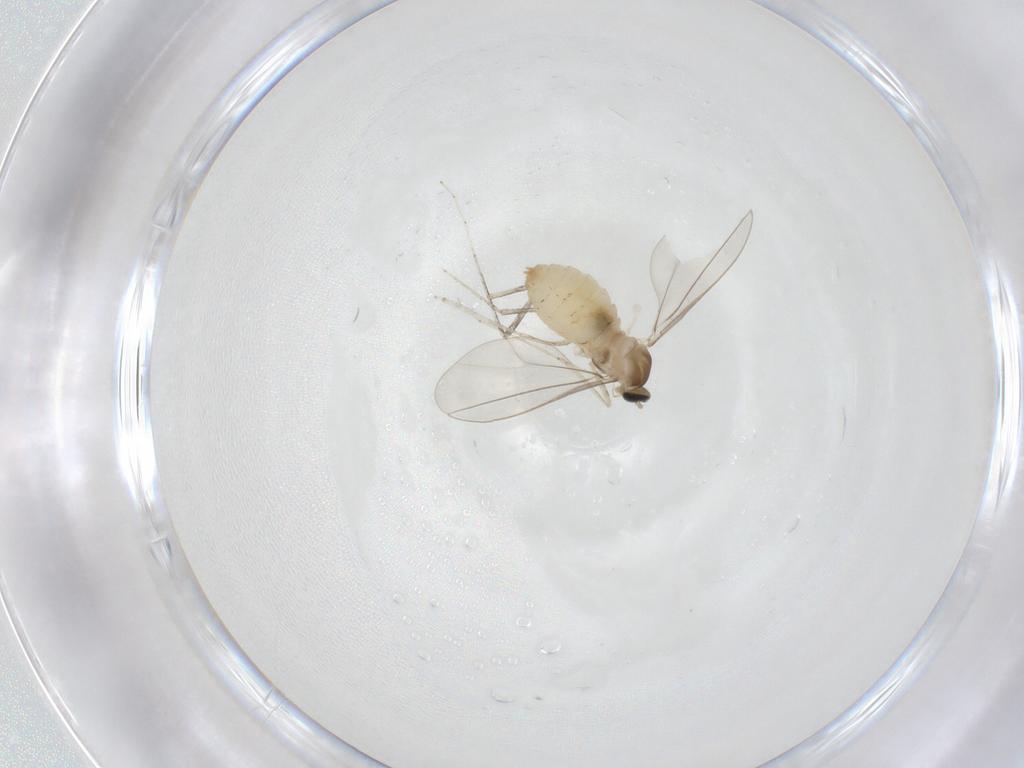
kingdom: Animalia
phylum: Arthropoda
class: Insecta
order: Diptera
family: Cecidomyiidae
